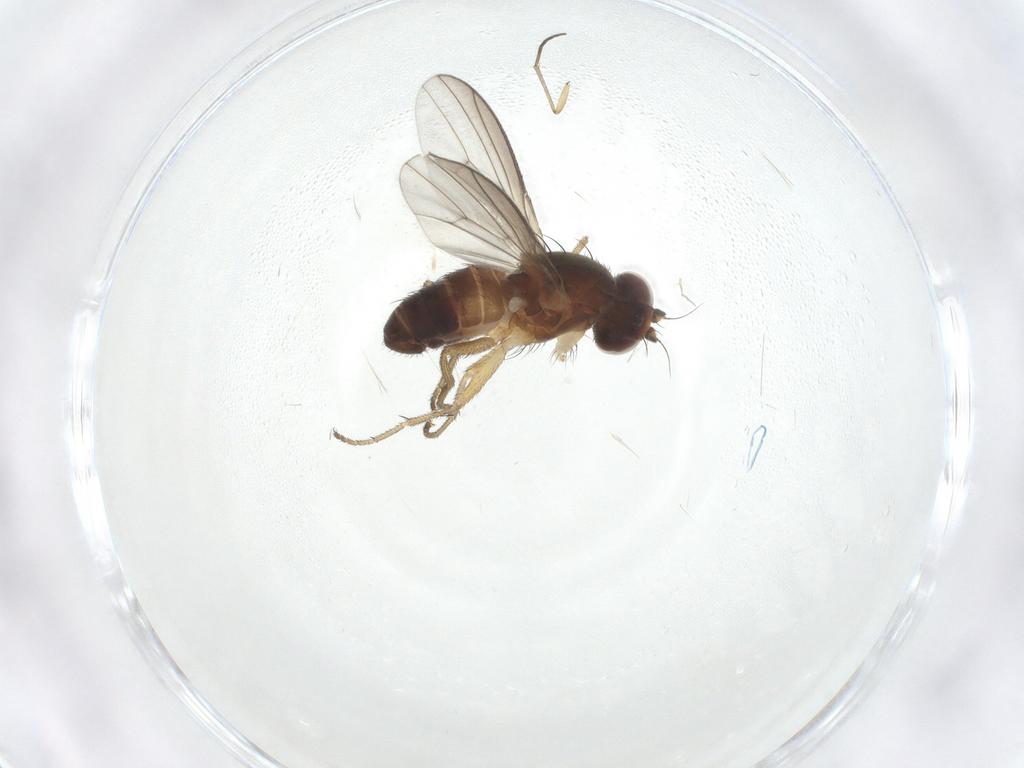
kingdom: Animalia
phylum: Arthropoda
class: Insecta
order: Diptera
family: Heleomyzidae
